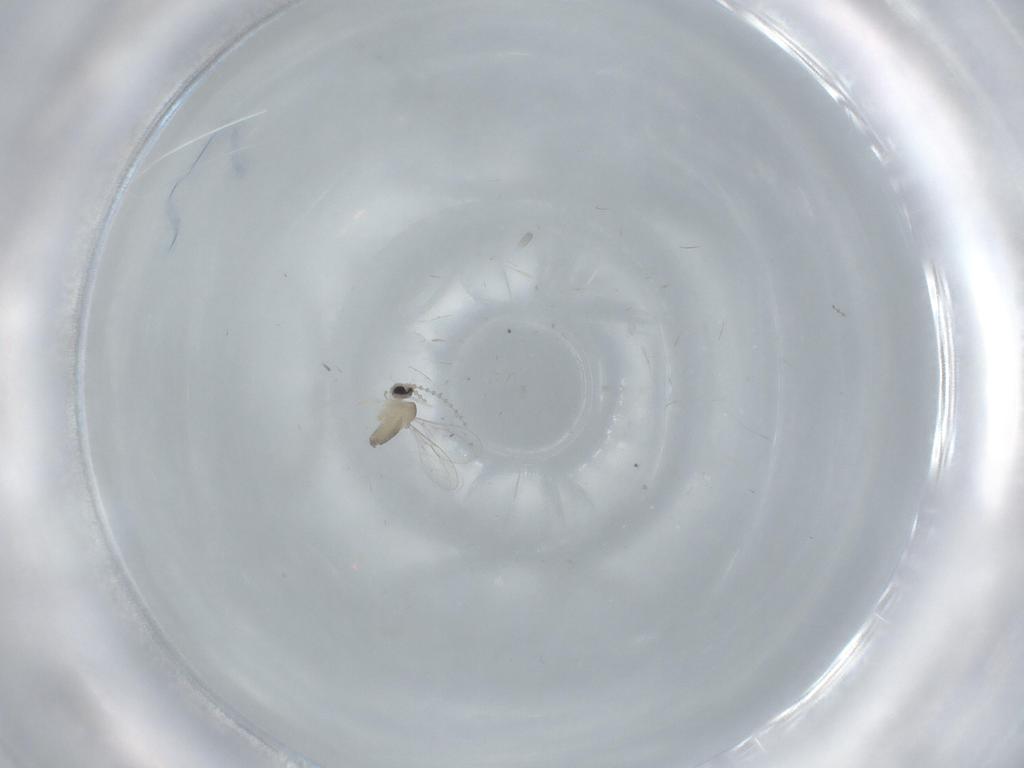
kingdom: Animalia
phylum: Arthropoda
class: Insecta
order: Diptera
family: Cecidomyiidae
